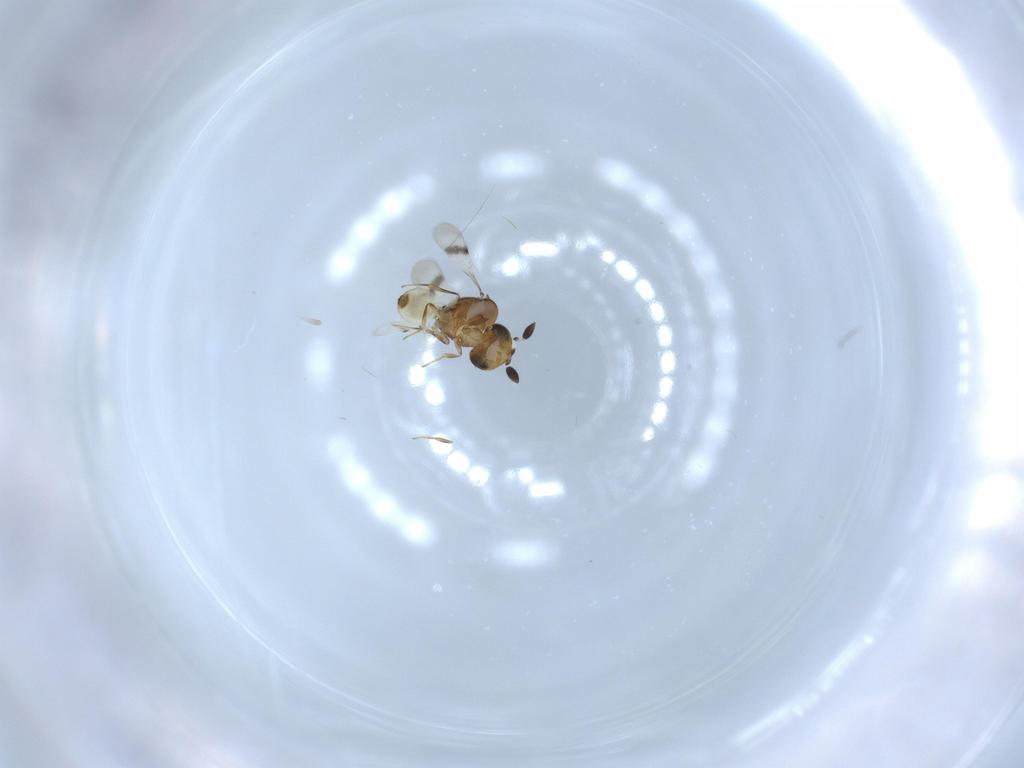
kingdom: Animalia
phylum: Arthropoda
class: Arachnida
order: Araneae
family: Pholcidae
